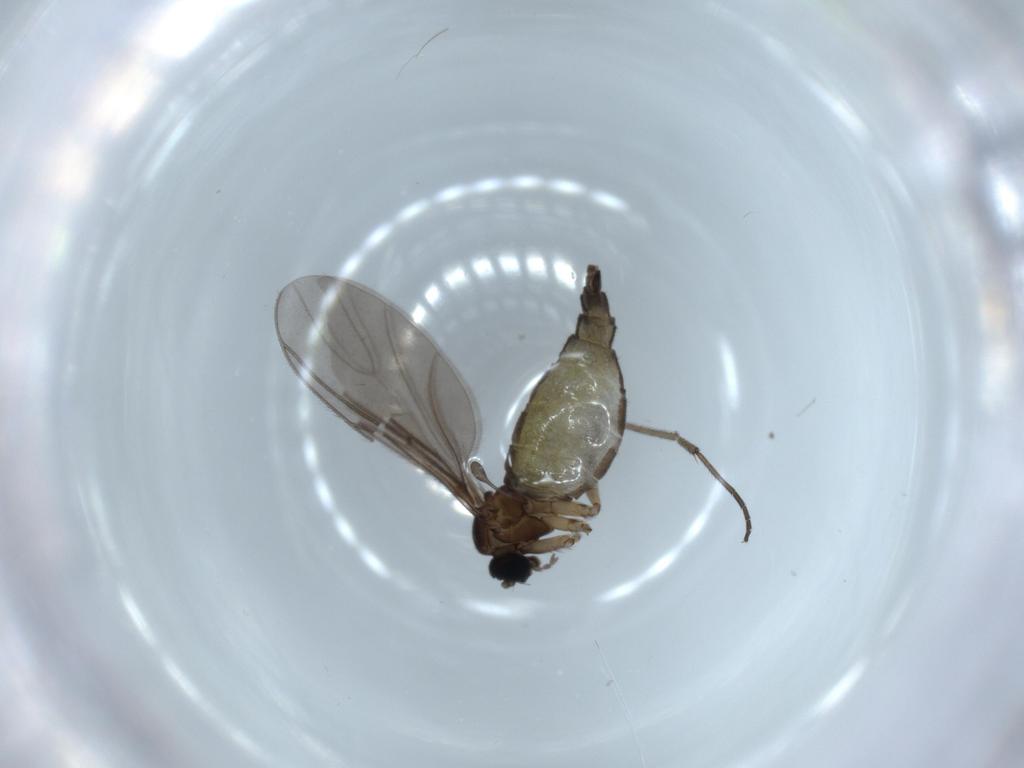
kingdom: Animalia
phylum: Arthropoda
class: Insecta
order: Diptera
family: Sciaridae
